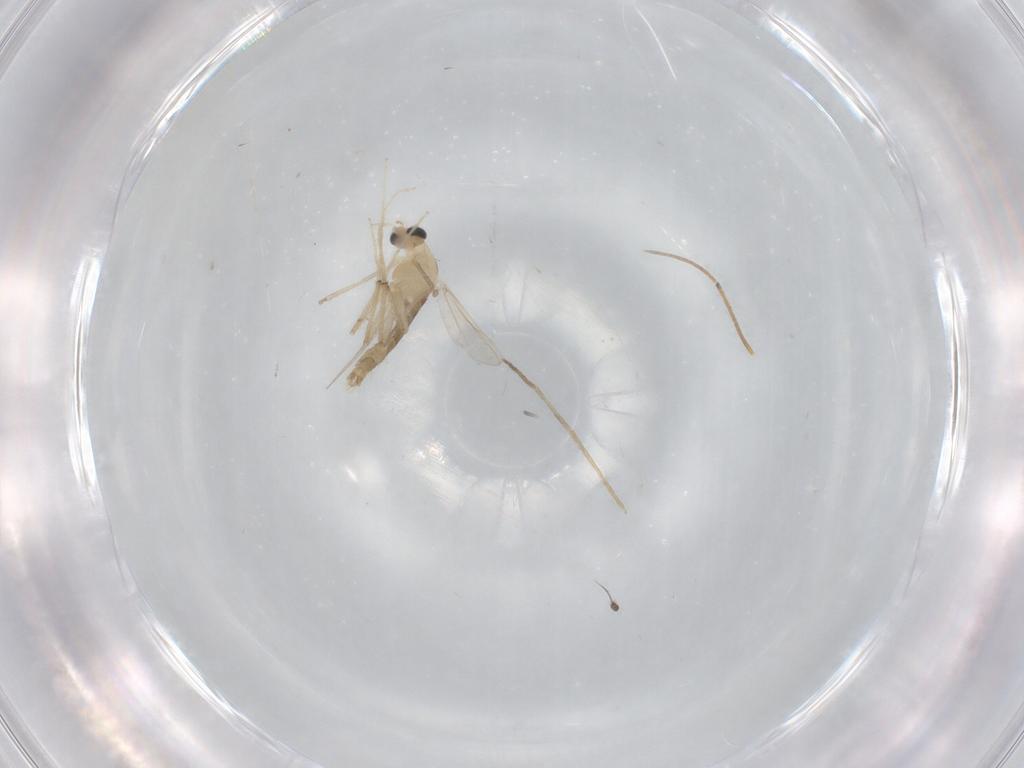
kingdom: Animalia
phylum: Arthropoda
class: Insecta
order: Diptera
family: Chironomidae
